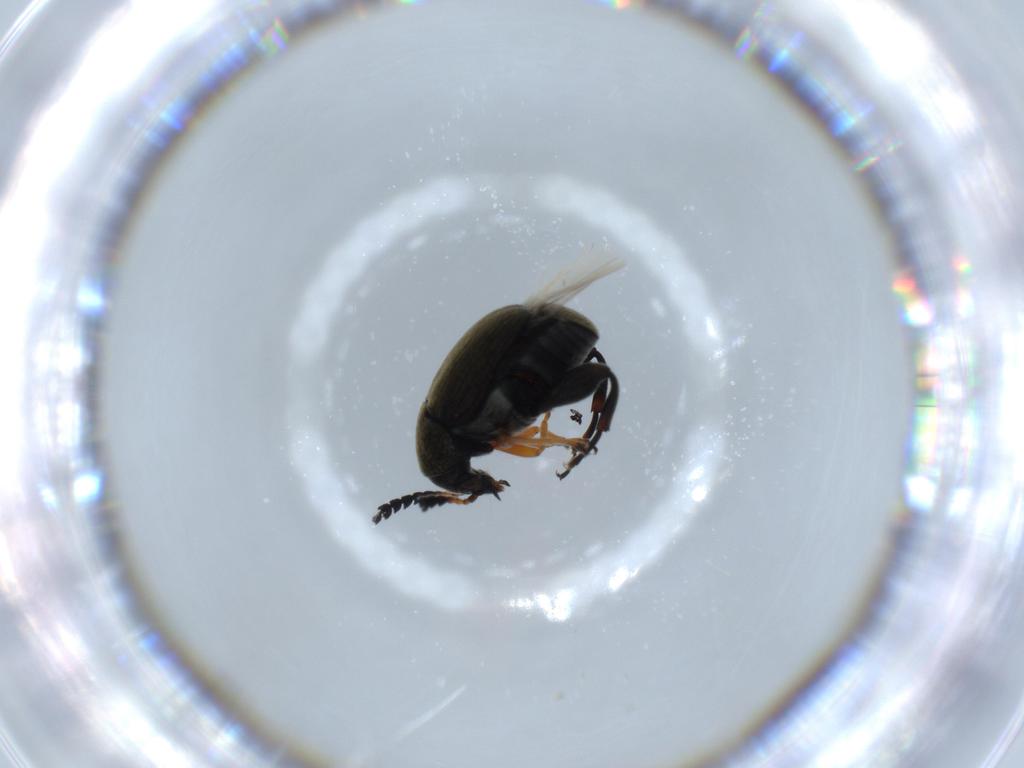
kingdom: Animalia
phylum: Arthropoda
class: Insecta
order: Coleoptera
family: Chrysomelidae
